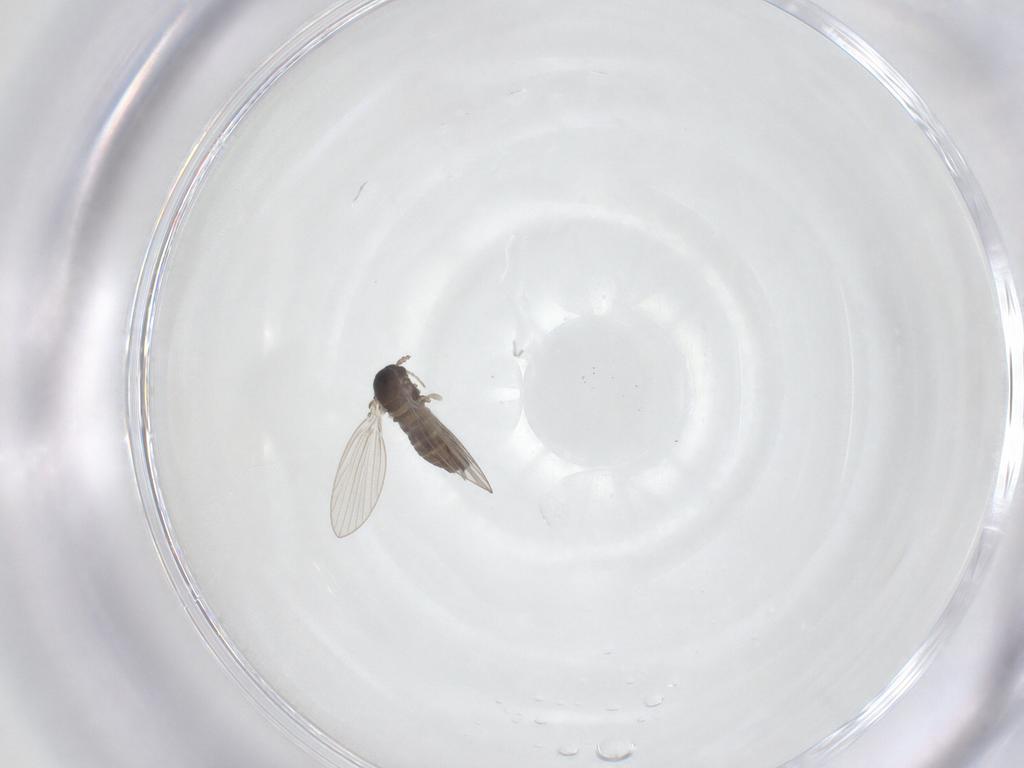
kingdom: Animalia
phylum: Arthropoda
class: Insecta
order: Diptera
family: Psychodidae
